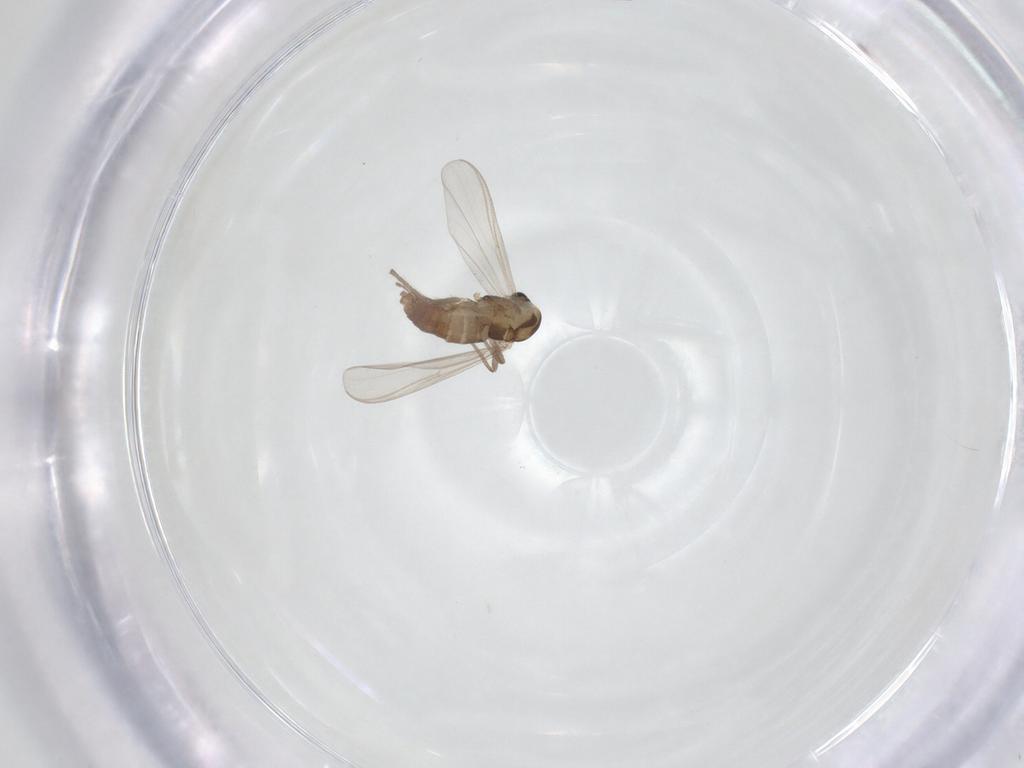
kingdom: Animalia
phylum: Arthropoda
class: Insecta
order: Diptera
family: Chironomidae
